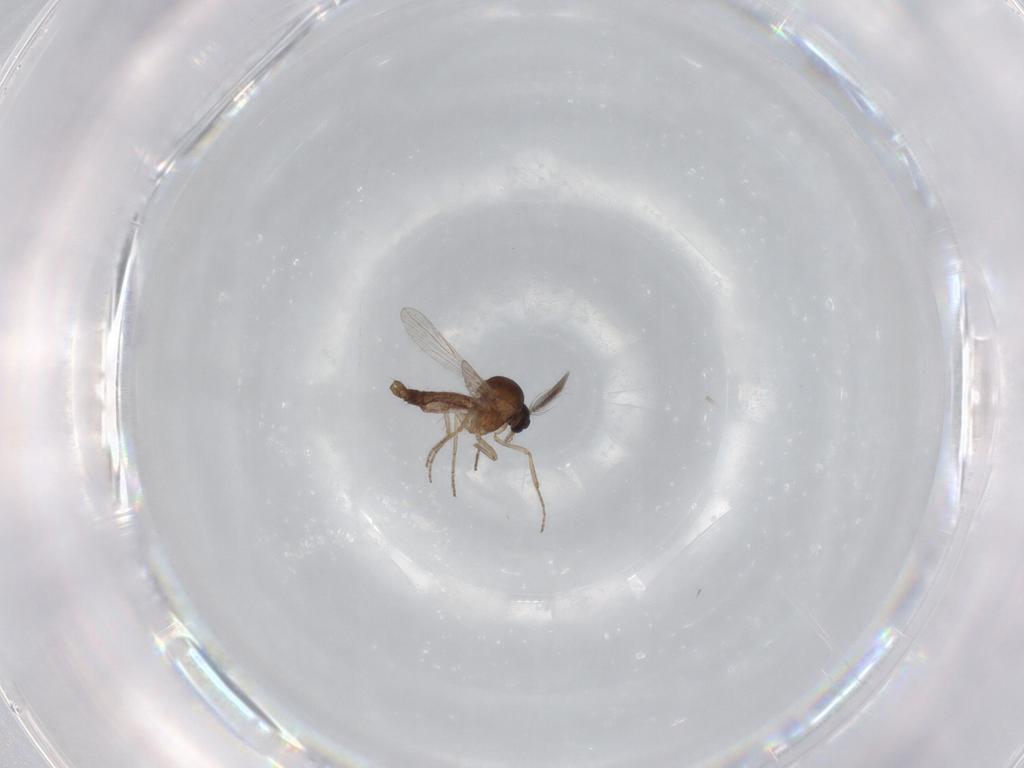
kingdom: Animalia
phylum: Arthropoda
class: Insecta
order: Diptera
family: Ceratopogonidae
